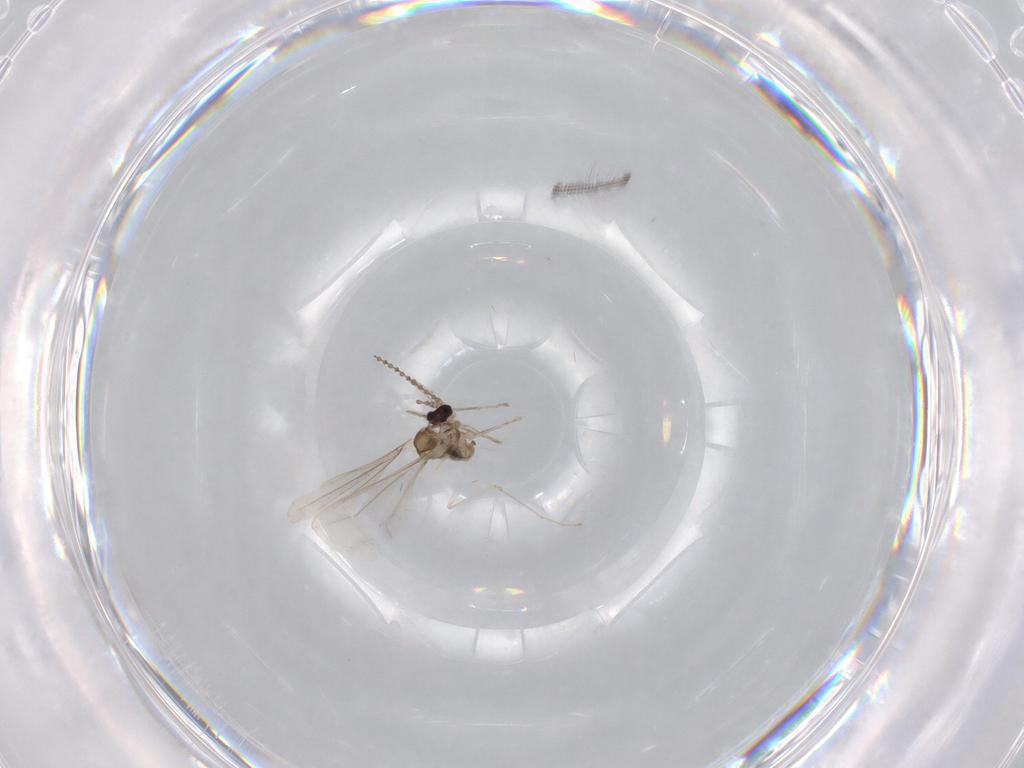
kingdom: Animalia
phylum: Arthropoda
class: Insecta
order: Diptera
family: Cecidomyiidae
